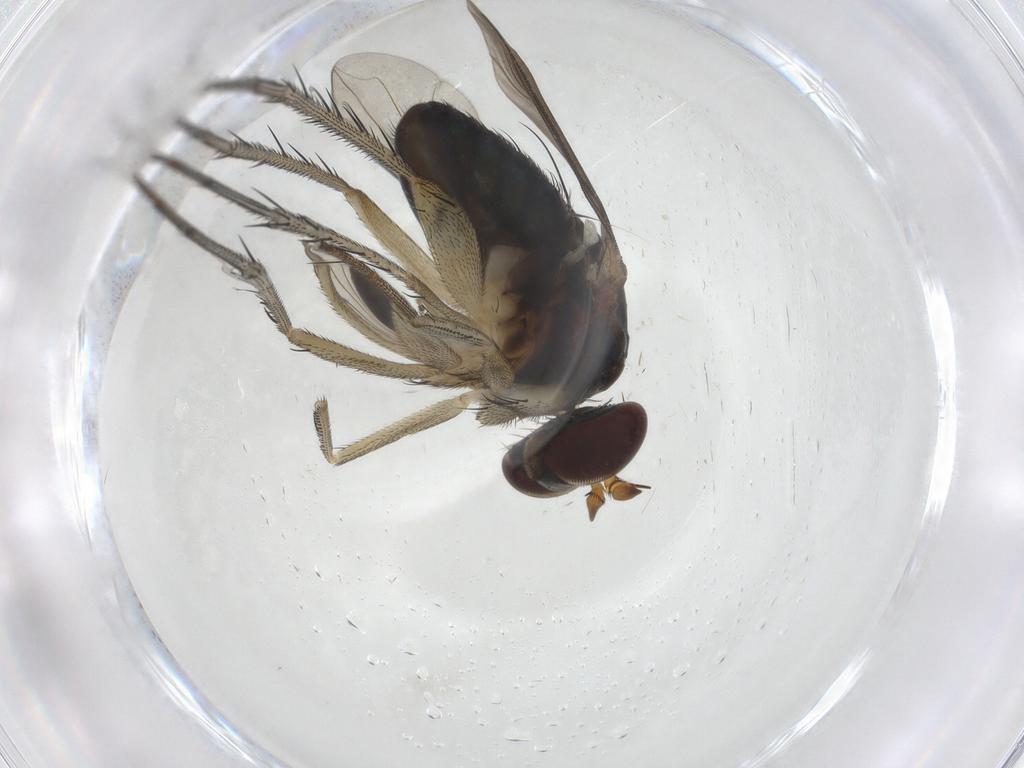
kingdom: Animalia
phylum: Arthropoda
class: Insecta
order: Diptera
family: Dolichopodidae
